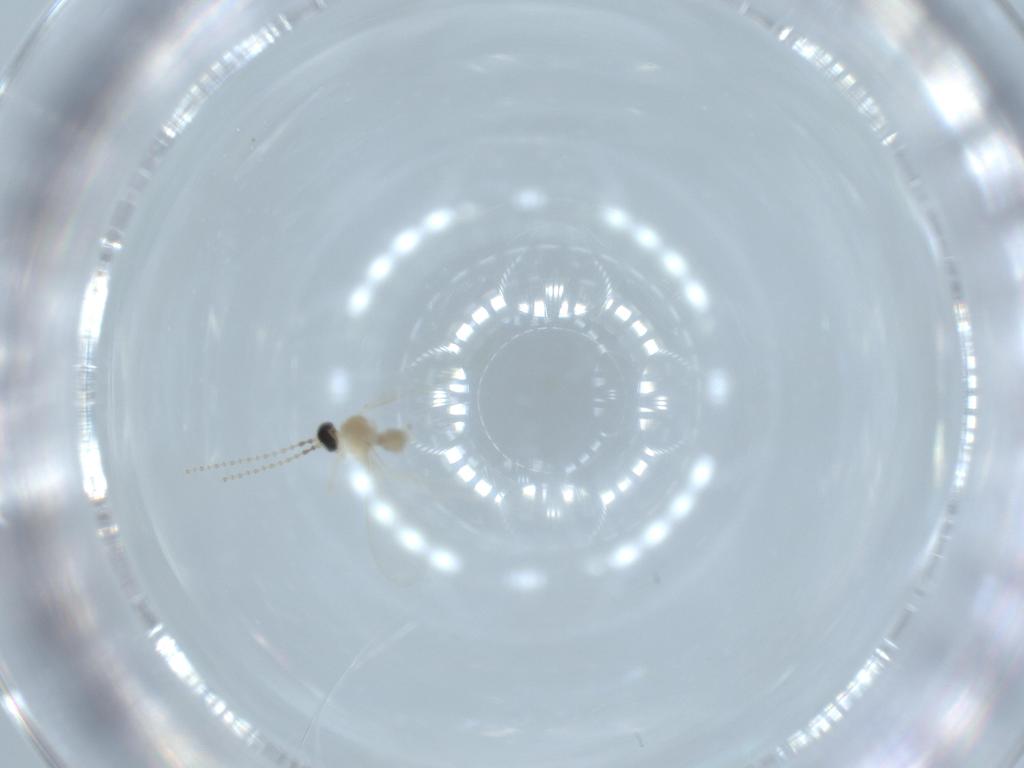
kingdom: Animalia
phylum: Arthropoda
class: Insecta
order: Diptera
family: Cecidomyiidae
